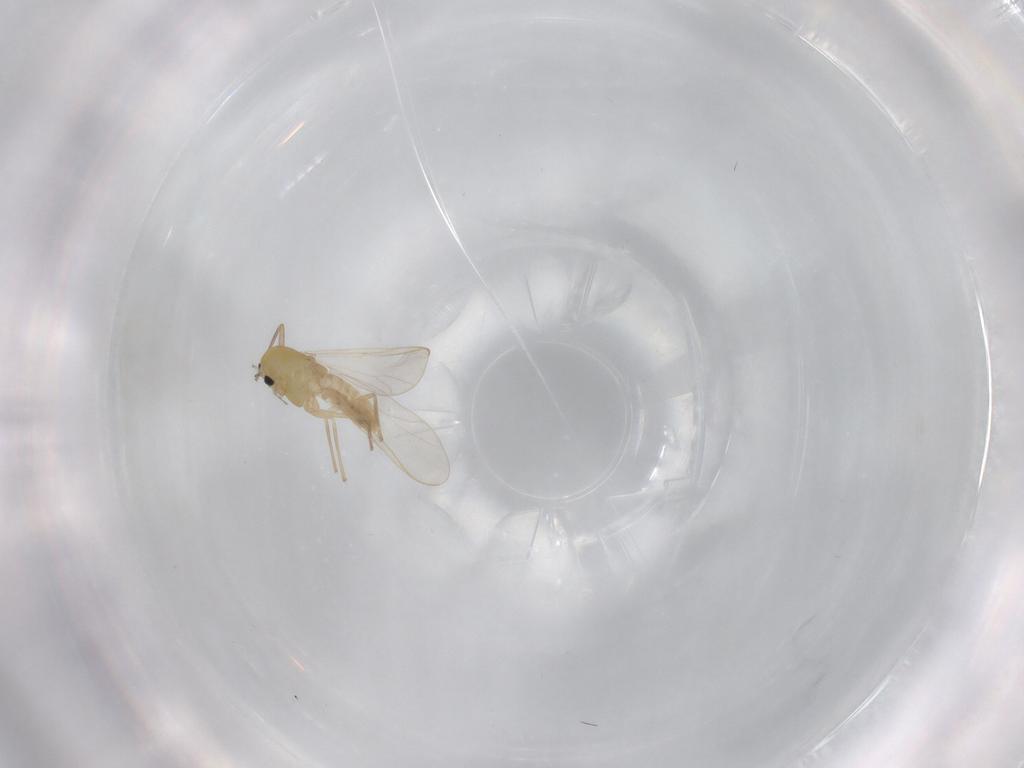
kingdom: Animalia
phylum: Arthropoda
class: Insecta
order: Diptera
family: Chironomidae
